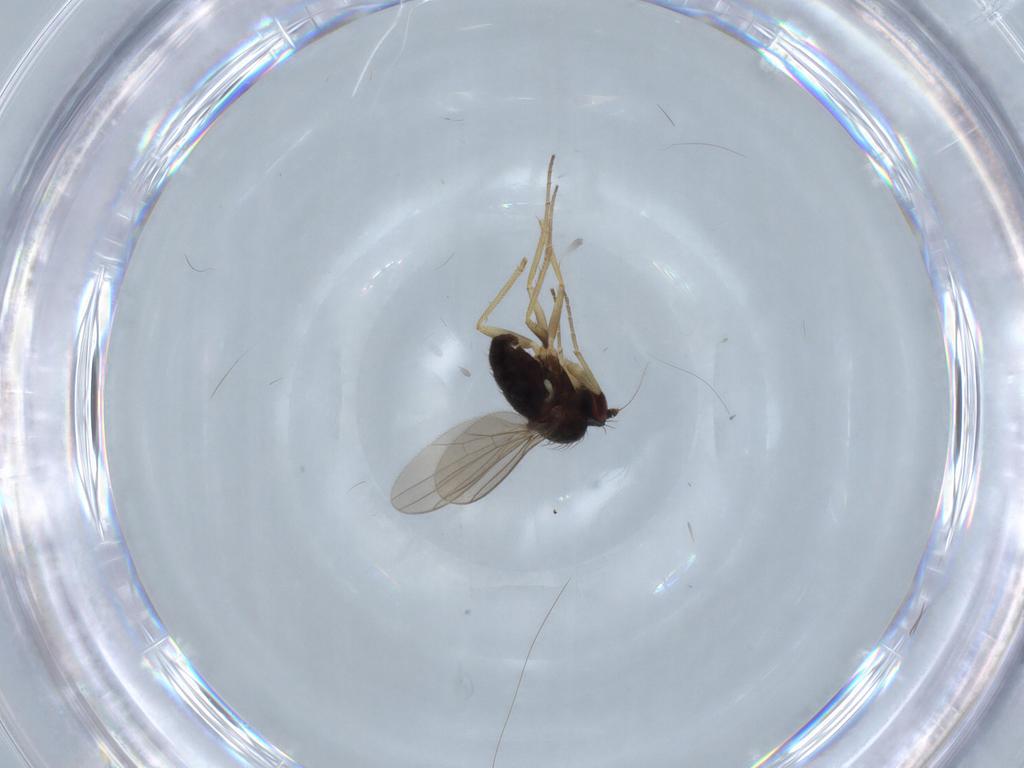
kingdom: Animalia
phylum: Arthropoda
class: Insecta
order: Diptera
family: Dolichopodidae
